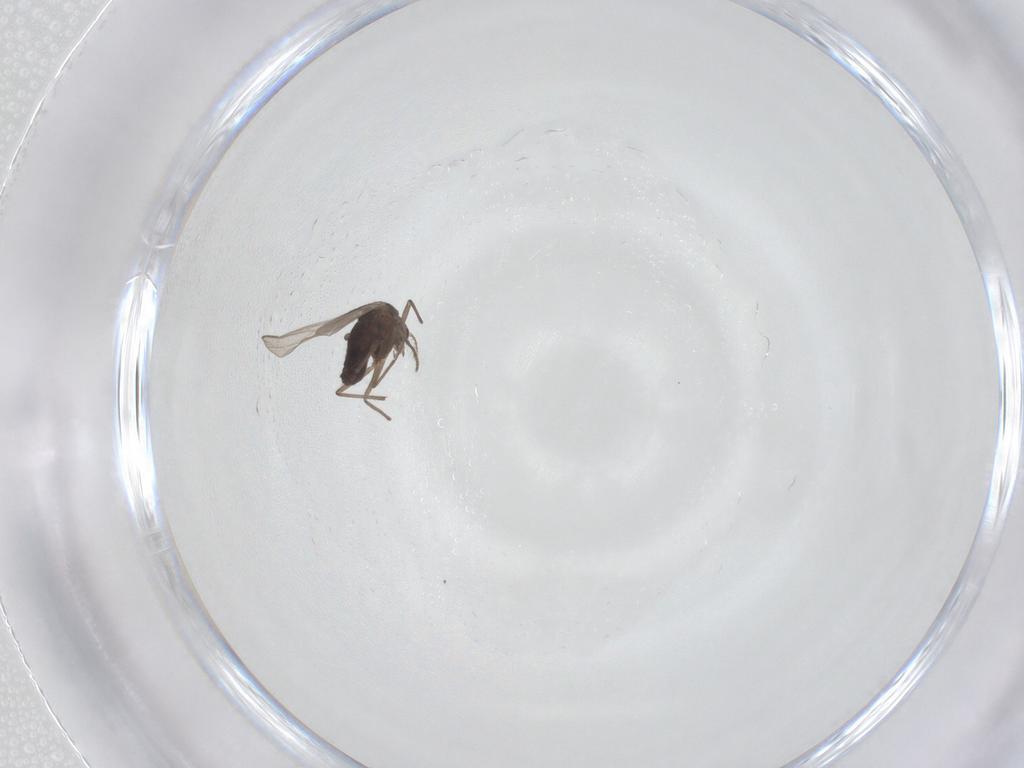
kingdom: Animalia
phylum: Arthropoda
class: Insecta
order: Diptera
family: Chironomidae
